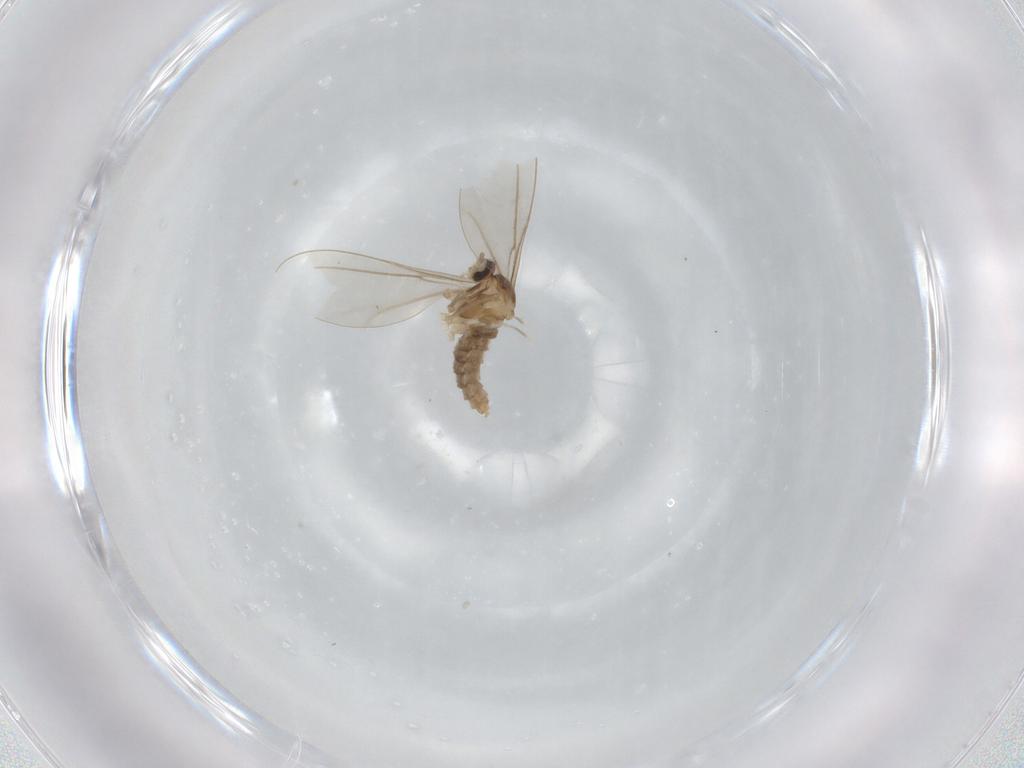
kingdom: Animalia
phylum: Arthropoda
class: Insecta
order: Diptera
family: Cecidomyiidae
